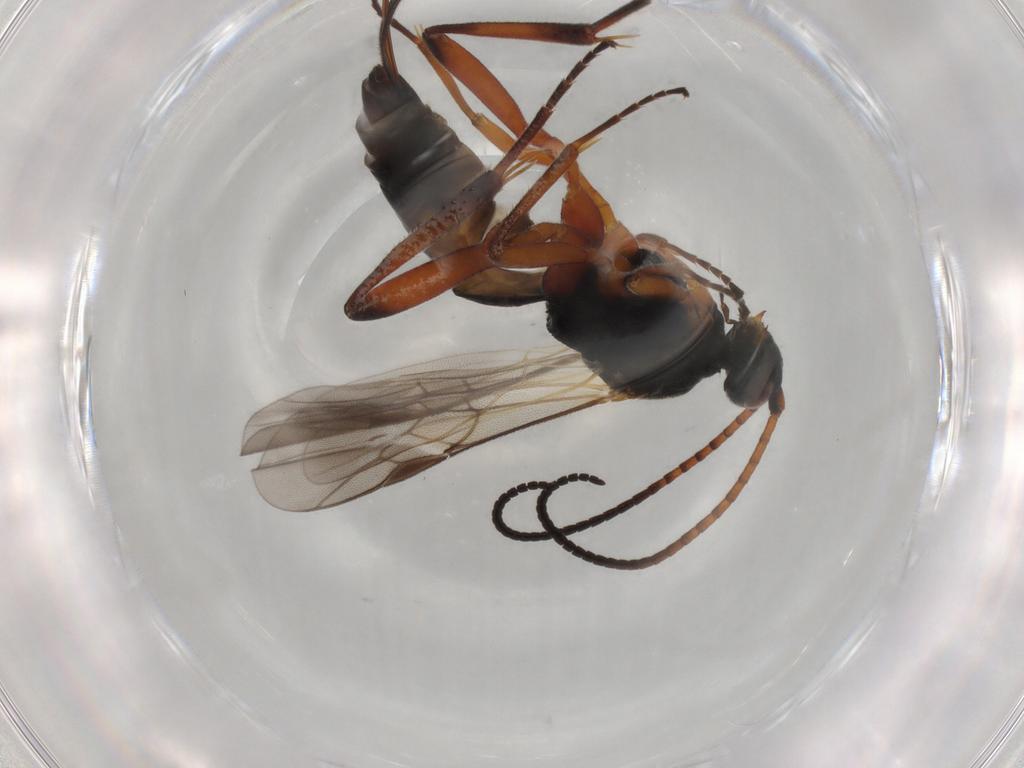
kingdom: Animalia
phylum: Arthropoda
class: Insecta
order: Hymenoptera
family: Braconidae
